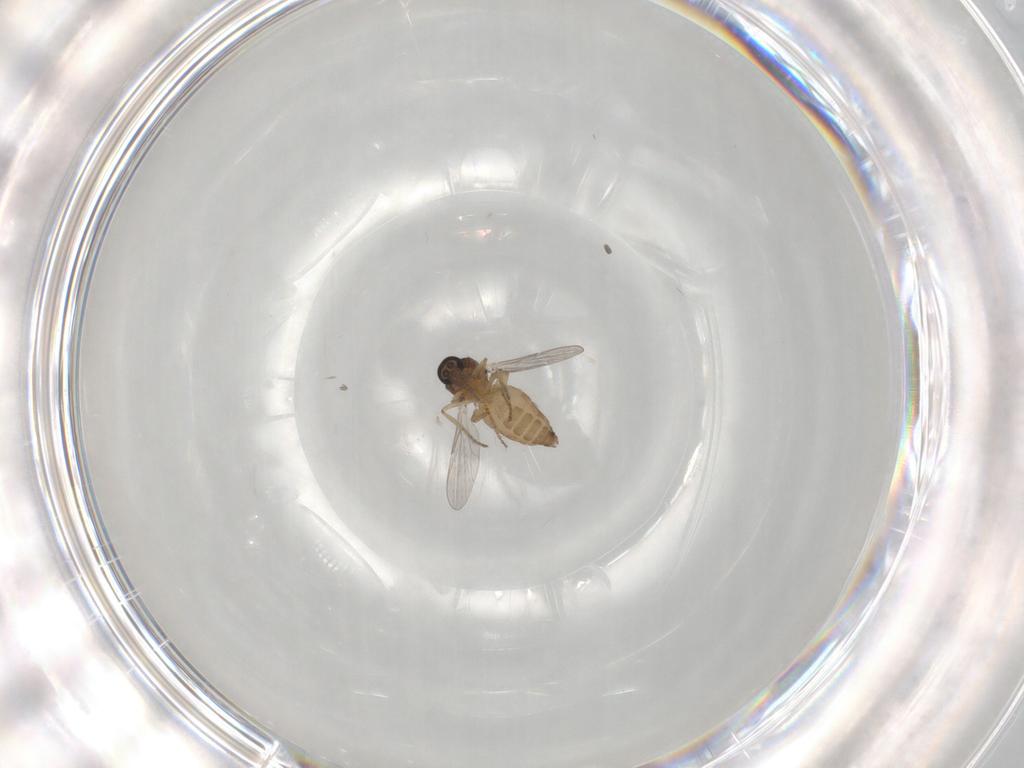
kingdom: Animalia
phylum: Arthropoda
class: Insecta
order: Diptera
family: Ceratopogonidae
